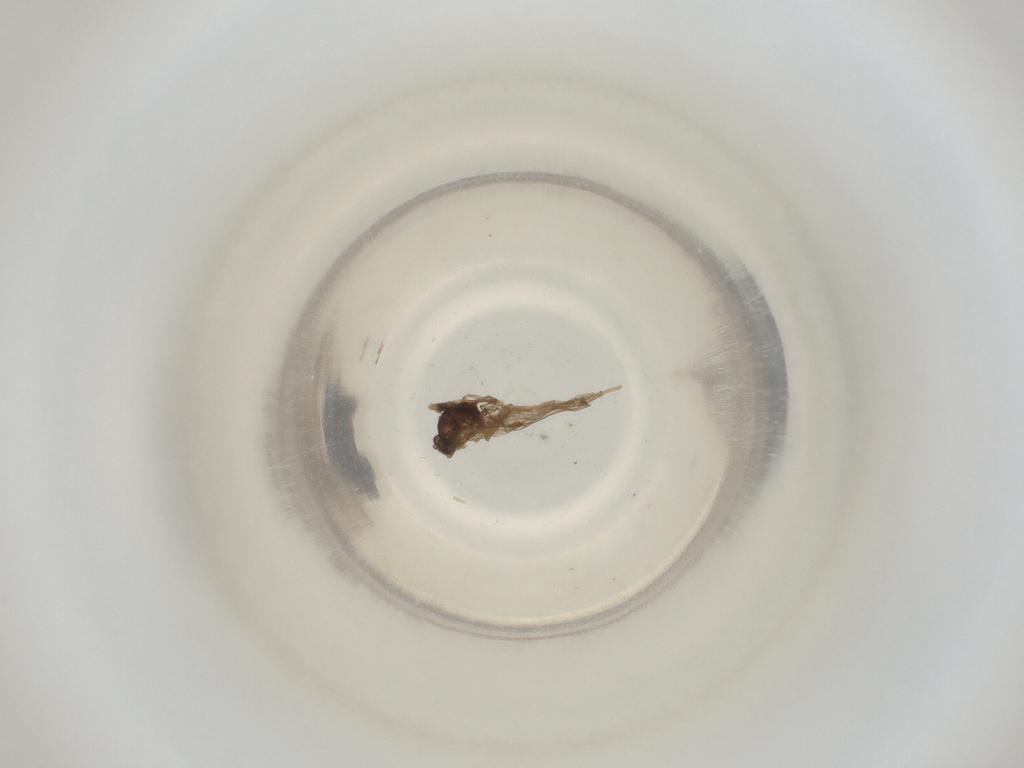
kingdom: Animalia
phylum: Arthropoda
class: Insecta
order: Diptera
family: Cecidomyiidae
